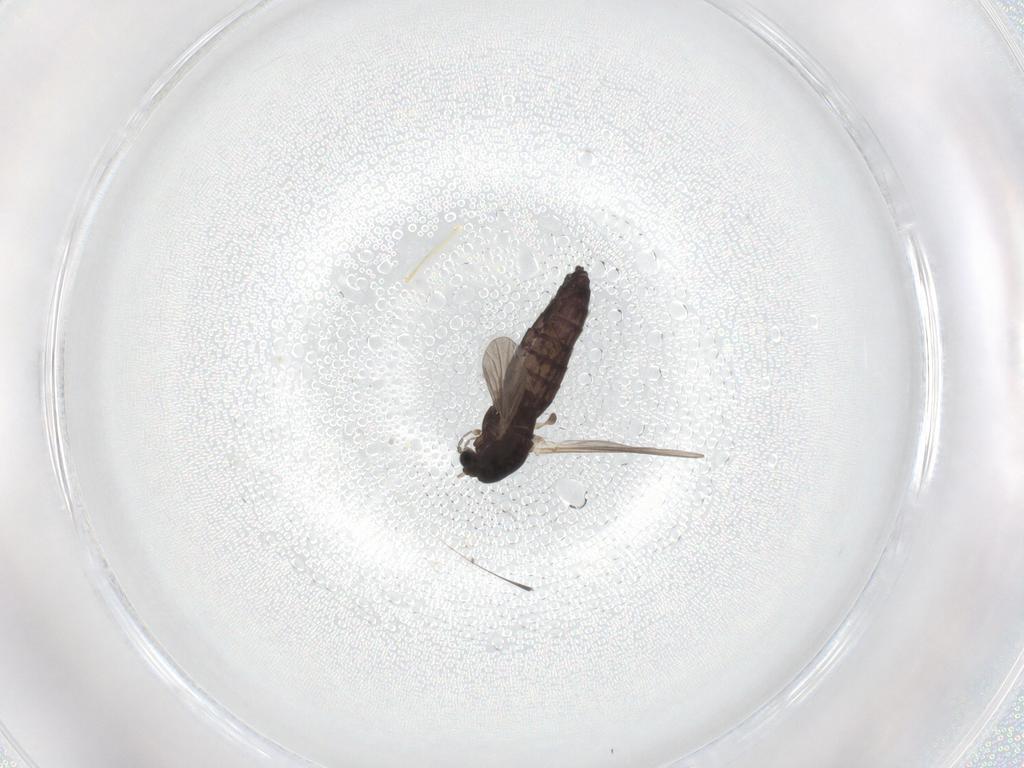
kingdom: Animalia
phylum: Arthropoda
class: Insecta
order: Diptera
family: Chironomidae
